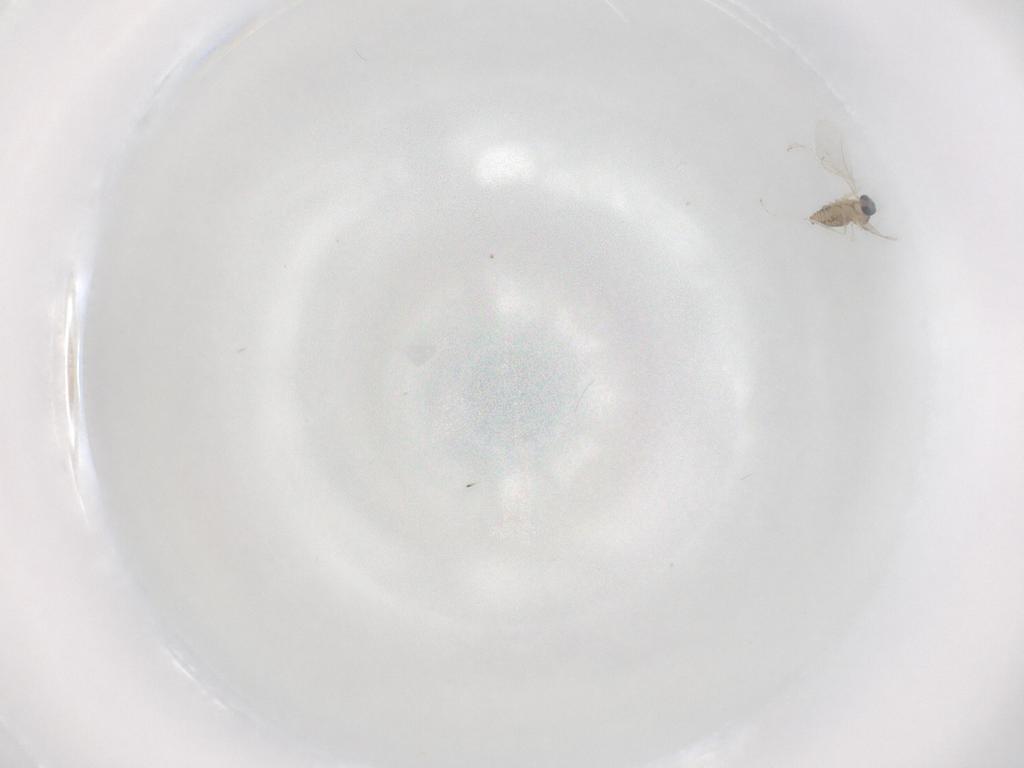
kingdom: Animalia
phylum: Arthropoda
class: Insecta
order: Diptera
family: Cecidomyiidae
